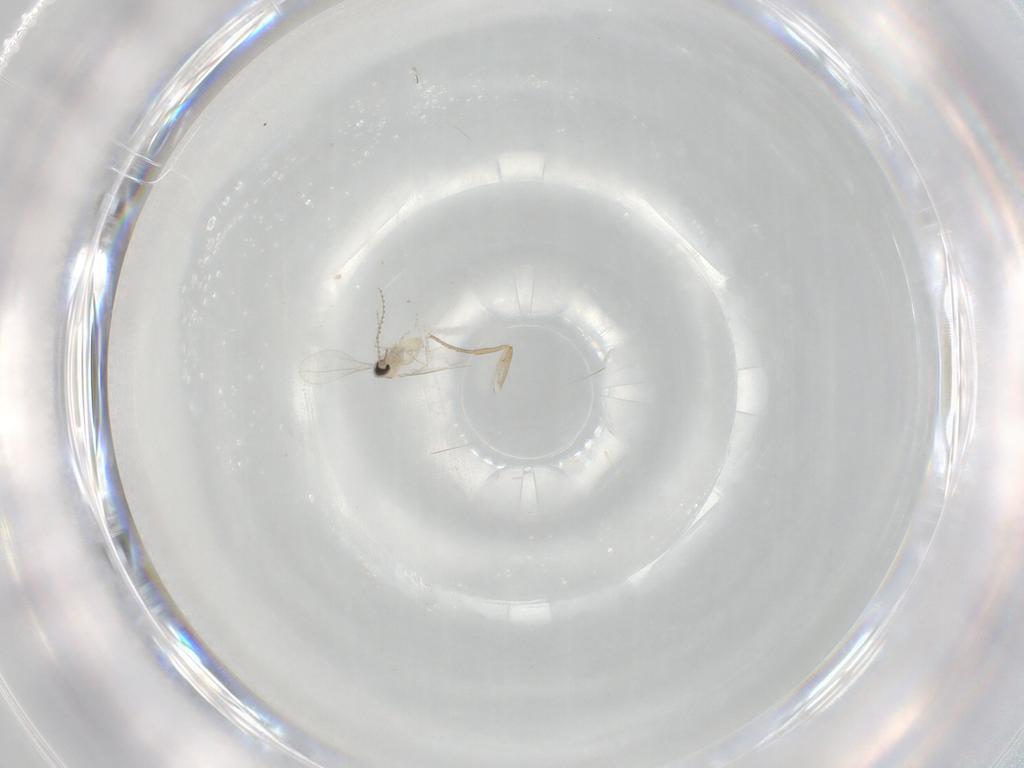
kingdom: Animalia
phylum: Arthropoda
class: Insecta
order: Diptera
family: Cecidomyiidae
